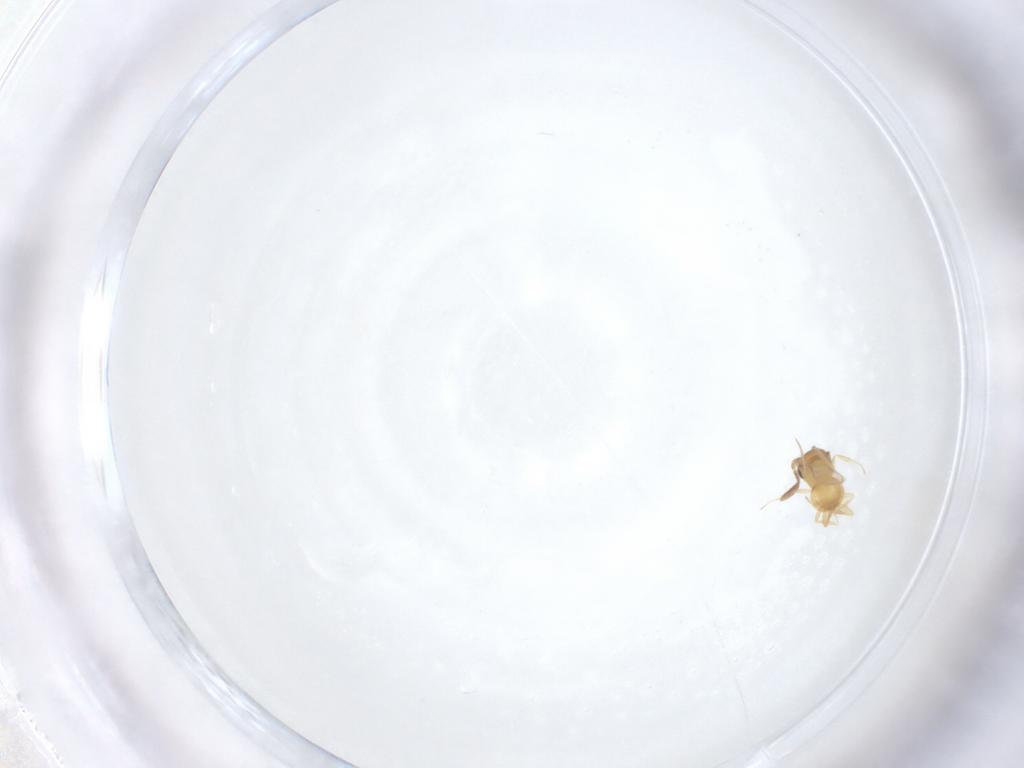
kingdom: Animalia
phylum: Arthropoda
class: Insecta
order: Hymenoptera
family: Scelionidae
